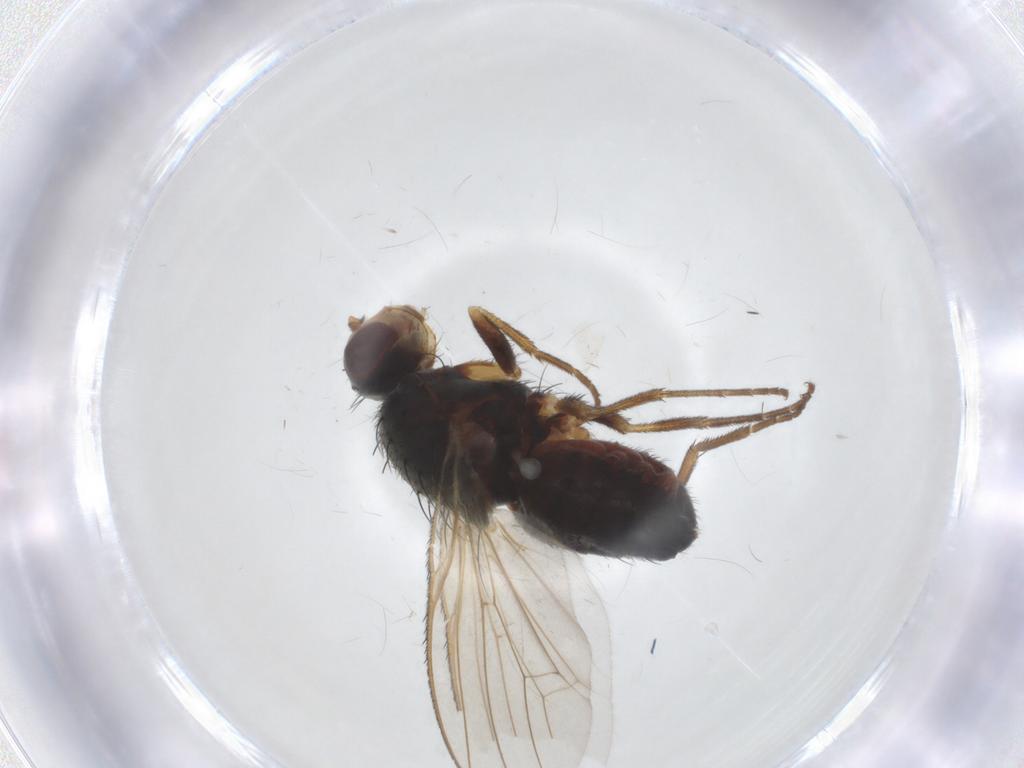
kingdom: Animalia
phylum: Arthropoda
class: Insecta
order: Diptera
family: Heleomyzidae
